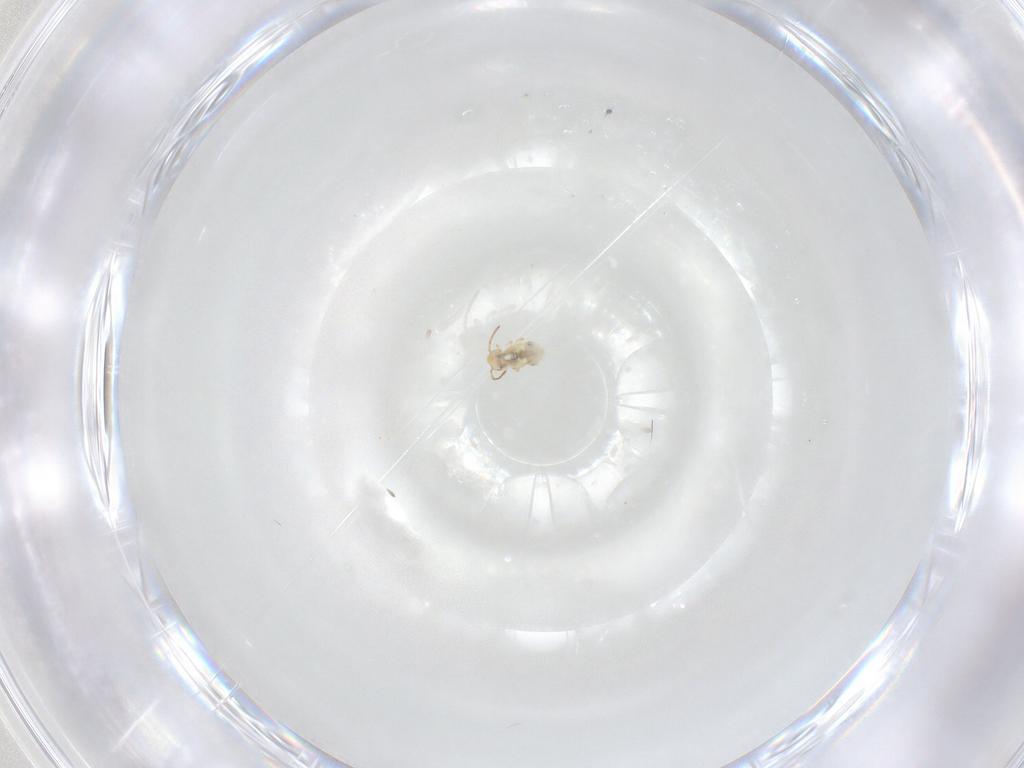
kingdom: Animalia
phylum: Arthropoda
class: Collembola
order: Symphypleona
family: Bourletiellidae
